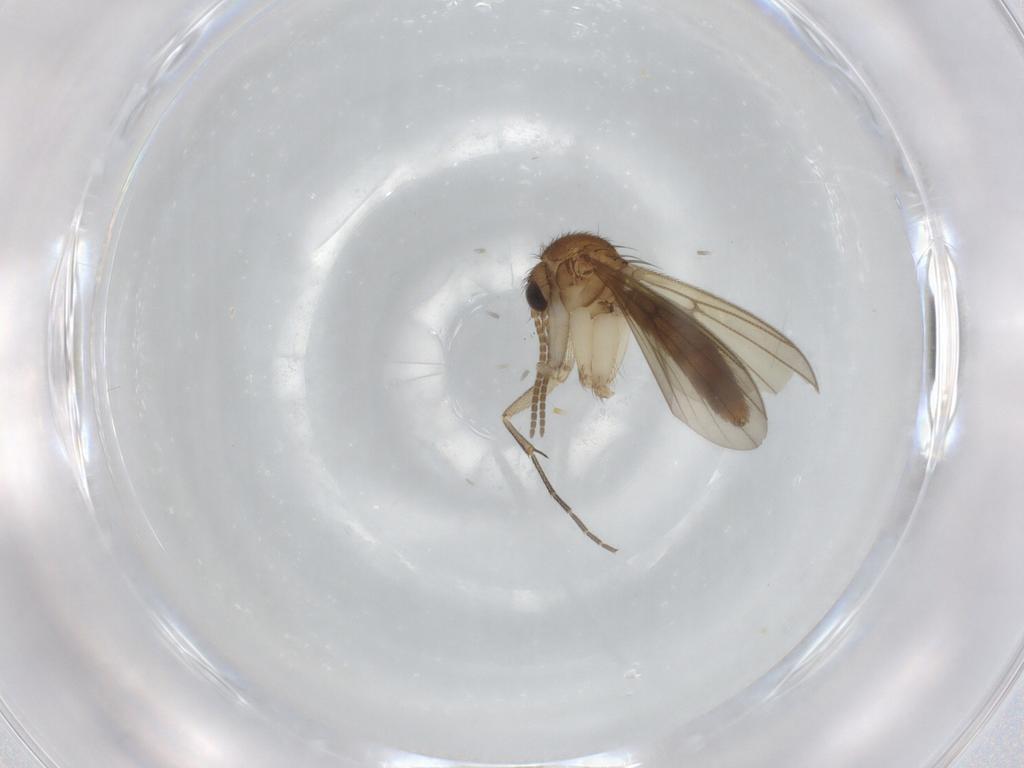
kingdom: Animalia
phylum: Arthropoda
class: Insecta
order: Diptera
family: Mycetophilidae
